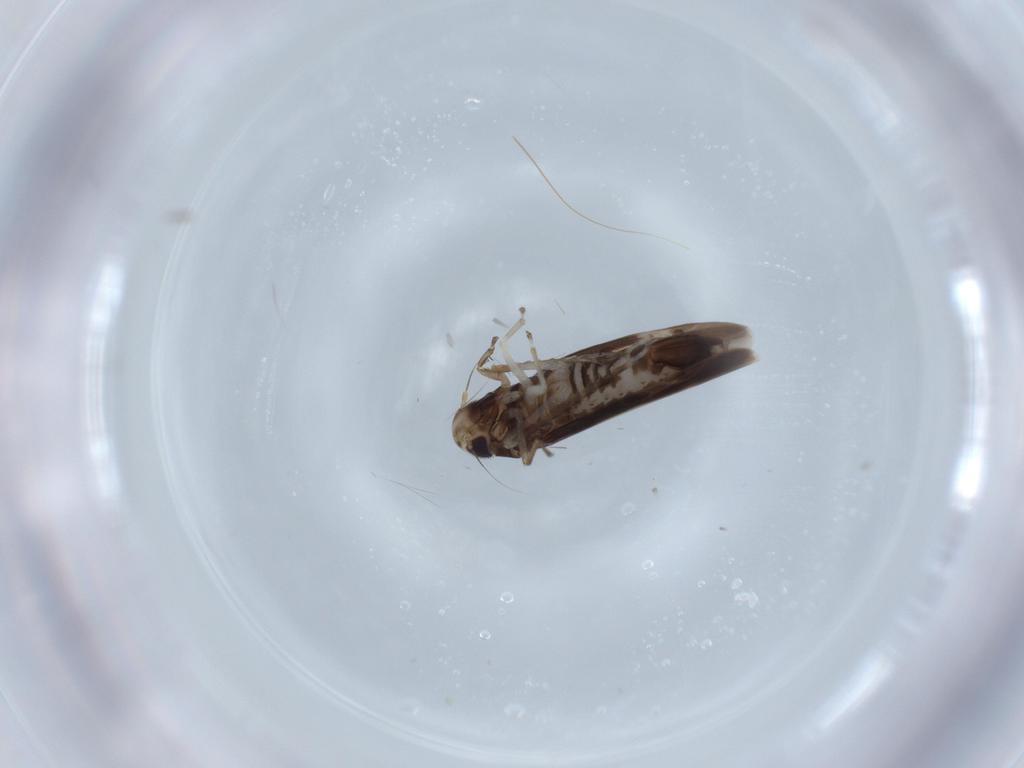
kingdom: Animalia
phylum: Arthropoda
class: Insecta
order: Hemiptera
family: Cicadellidae
